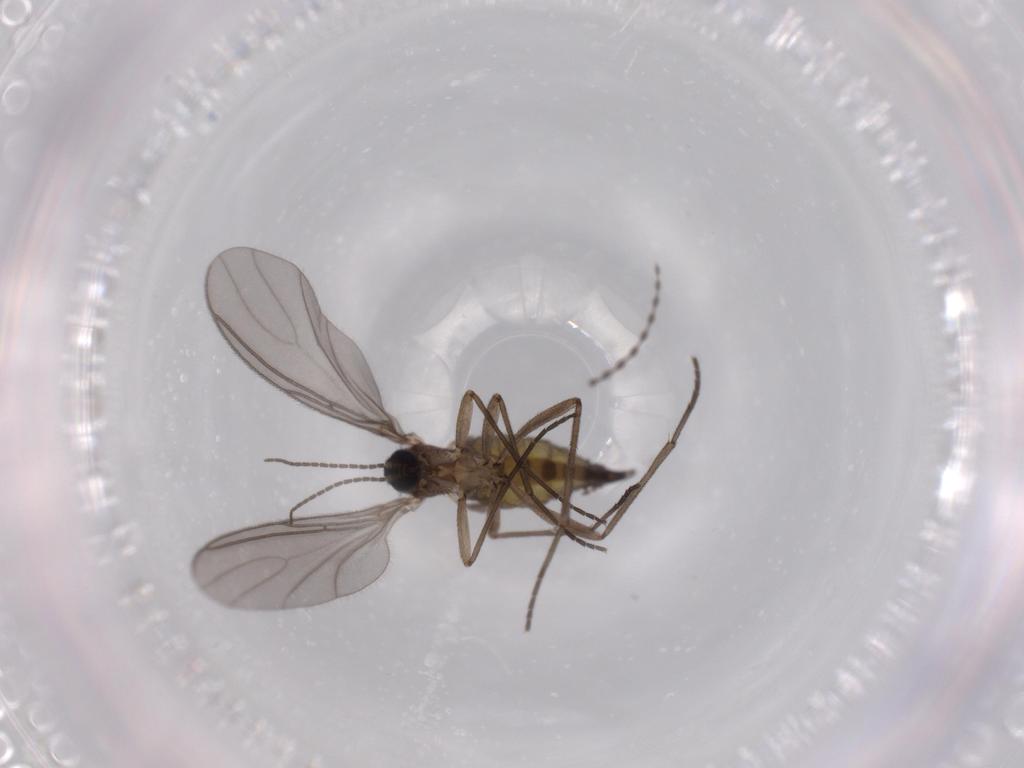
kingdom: Animalia
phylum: Arthropoda
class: Insecta
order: Diptera
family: Sciaridae
